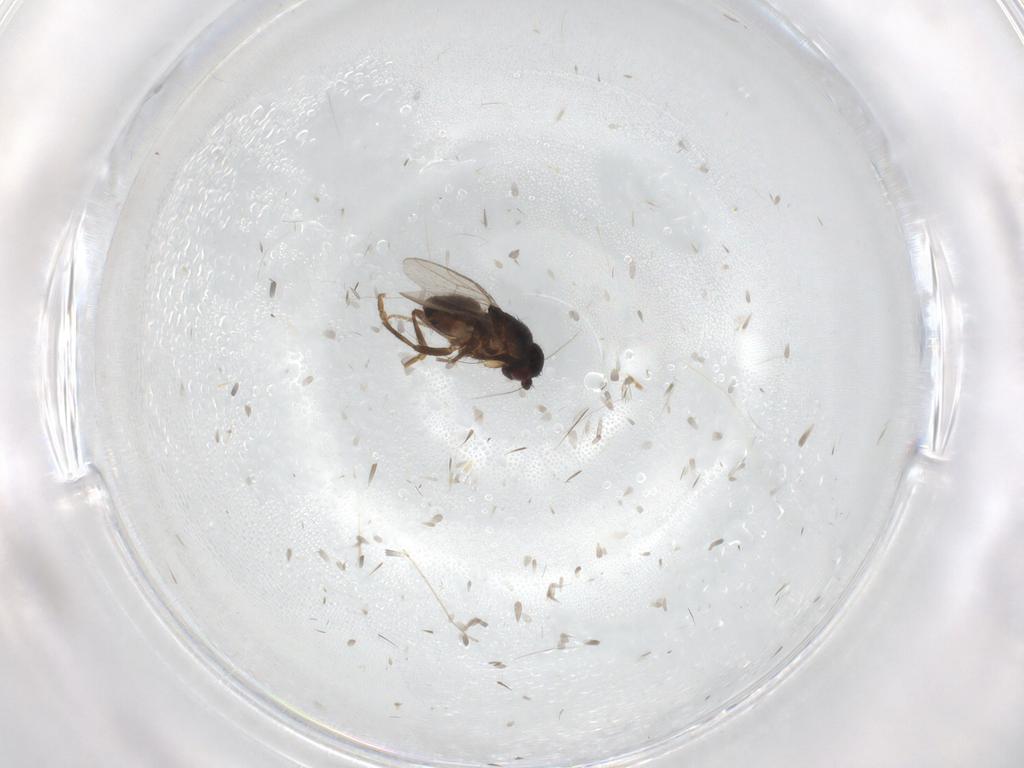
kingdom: Animalia
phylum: Arthropoda
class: Insecta
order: Diptera
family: Sphaeroceridae
